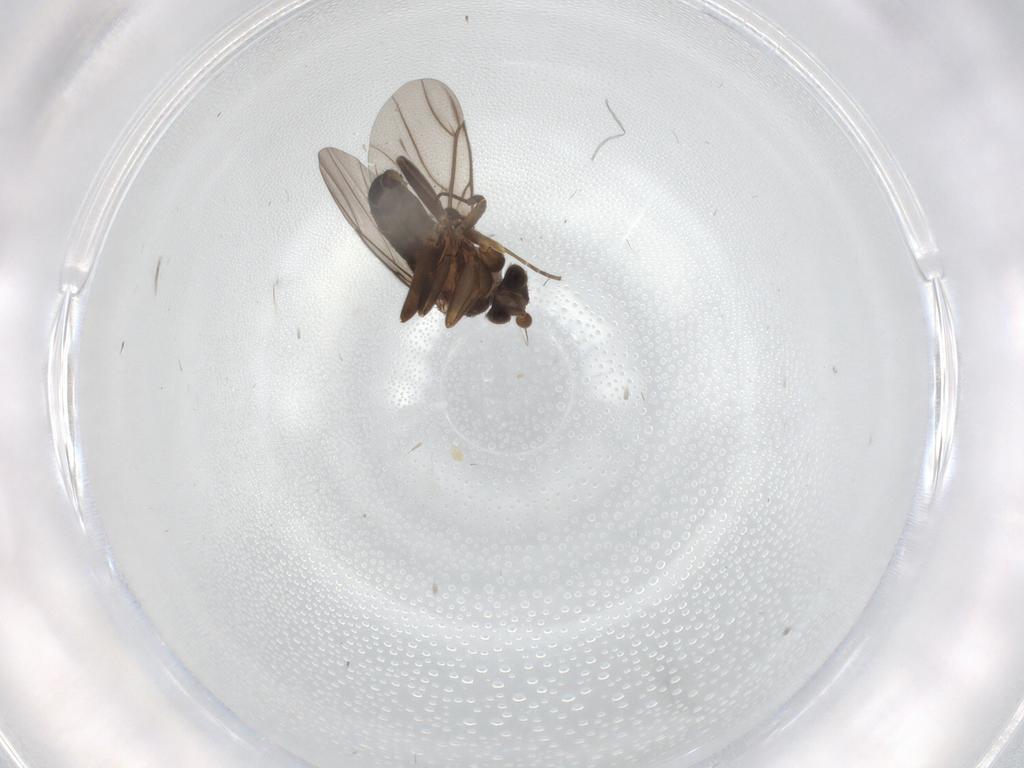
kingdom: Animalia
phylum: Arthropoda
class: Insecta
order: Diptera
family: Sciaridae
